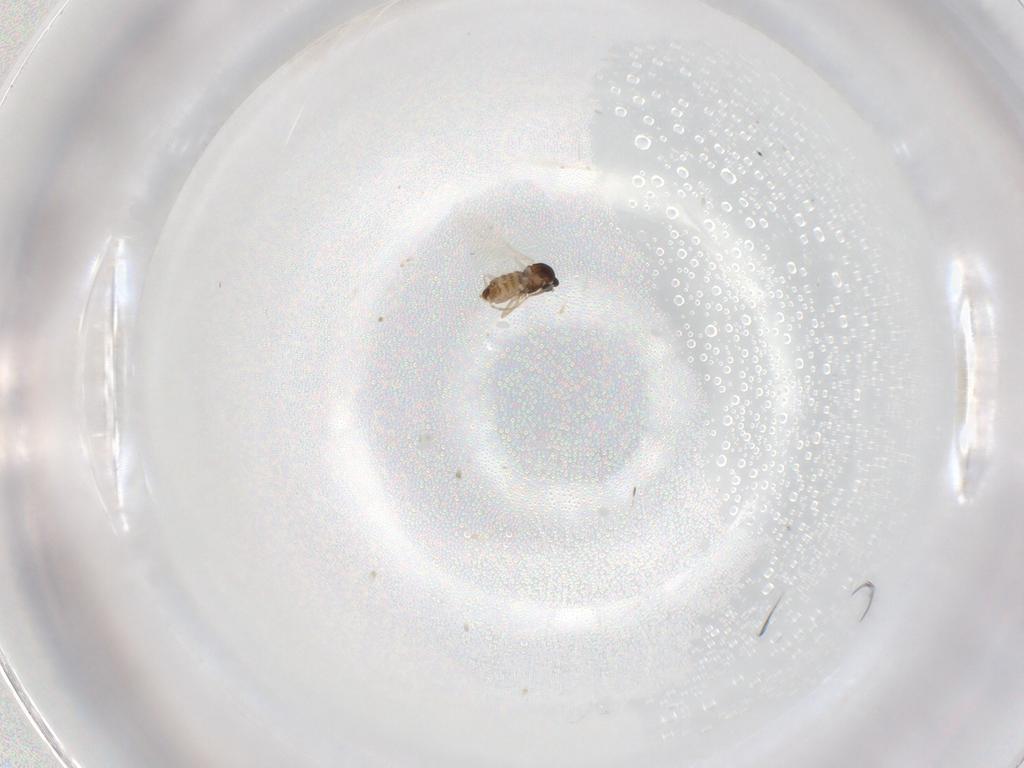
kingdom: Animalia
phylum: Arthropoda
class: Insecta
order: Diptera
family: Cecidomyiidae
